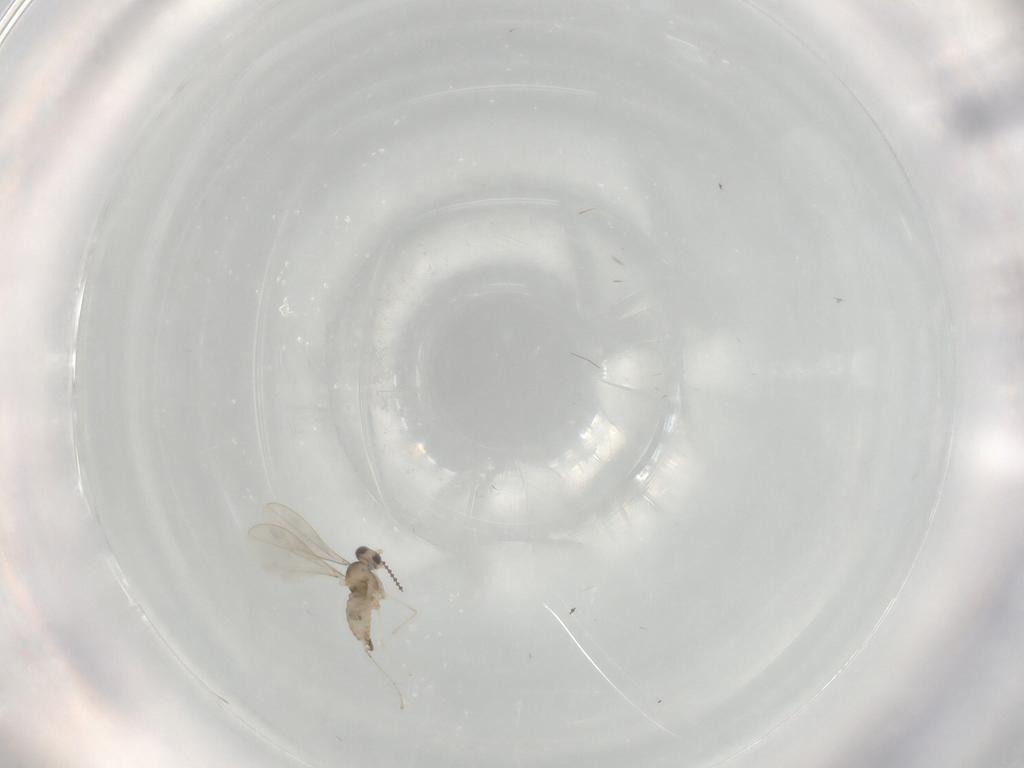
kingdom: Animalia
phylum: Arthropoda
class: Insecta
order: Diptera
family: Cecidomyiidae
